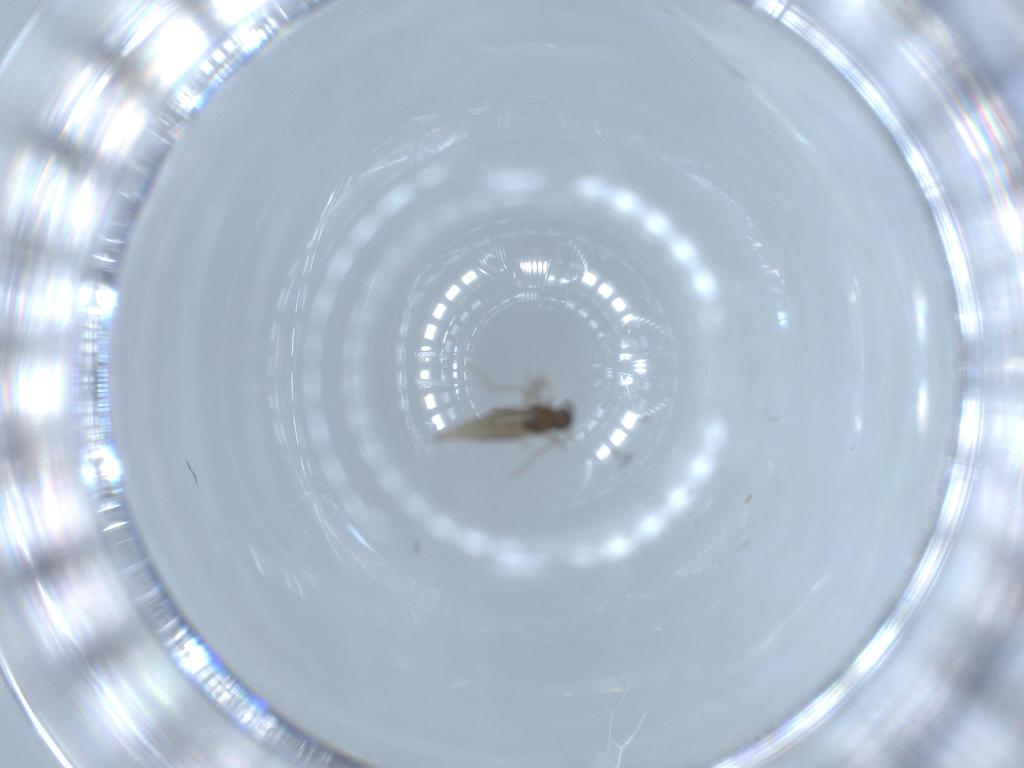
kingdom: Animalia
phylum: Arthropoda
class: Insecta
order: Diptera
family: Cecidomyiidae
